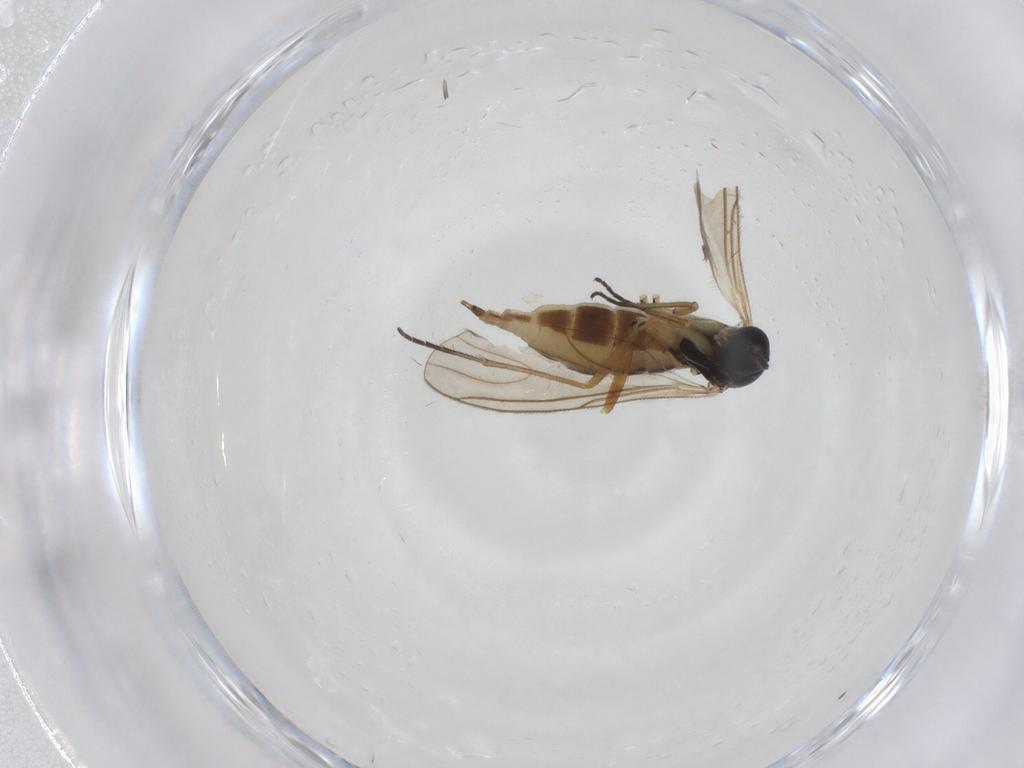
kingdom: Animalia
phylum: Arthropoda
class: Insecta
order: Diptera
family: Sciaridae
